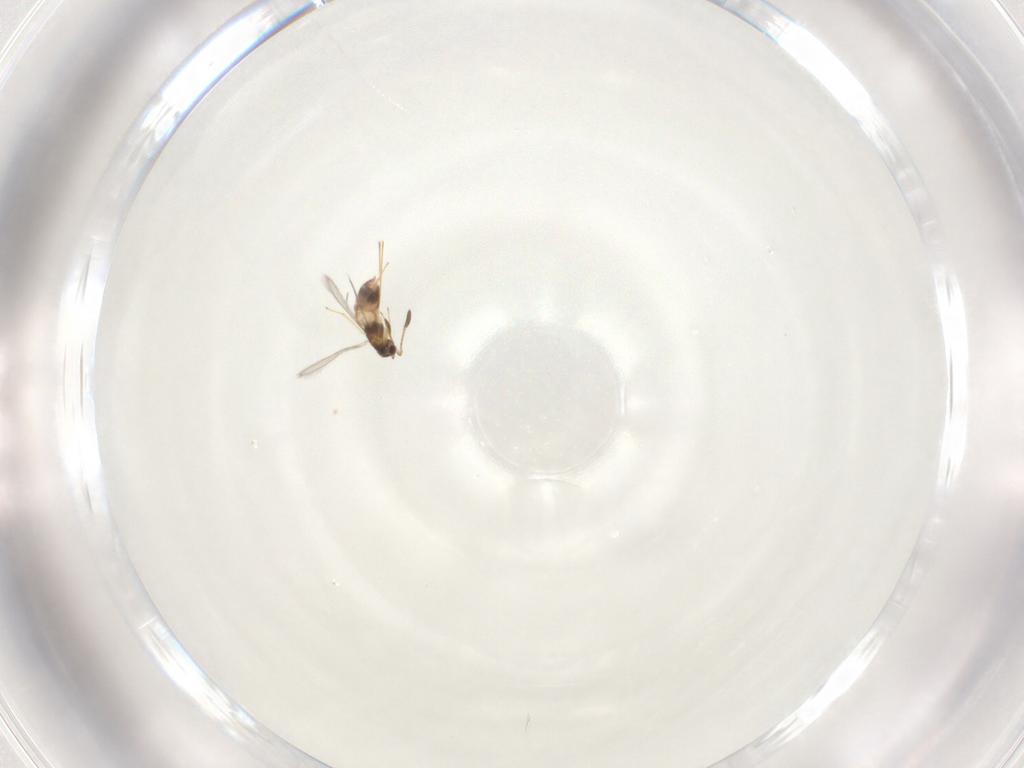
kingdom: Animalia
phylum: Arthropoda
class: Insecta
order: Hymenoptera
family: Mymaridae
